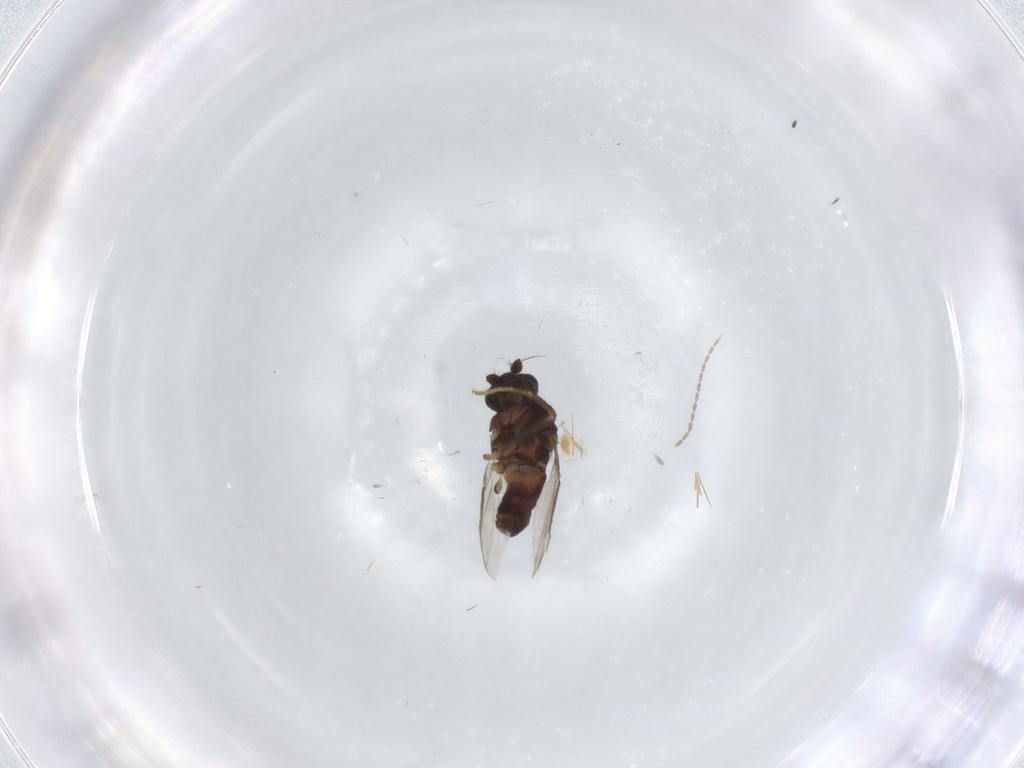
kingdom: Animalia
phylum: Arthropoda
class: Insecta
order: Diptera
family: Sphaeroceridae
